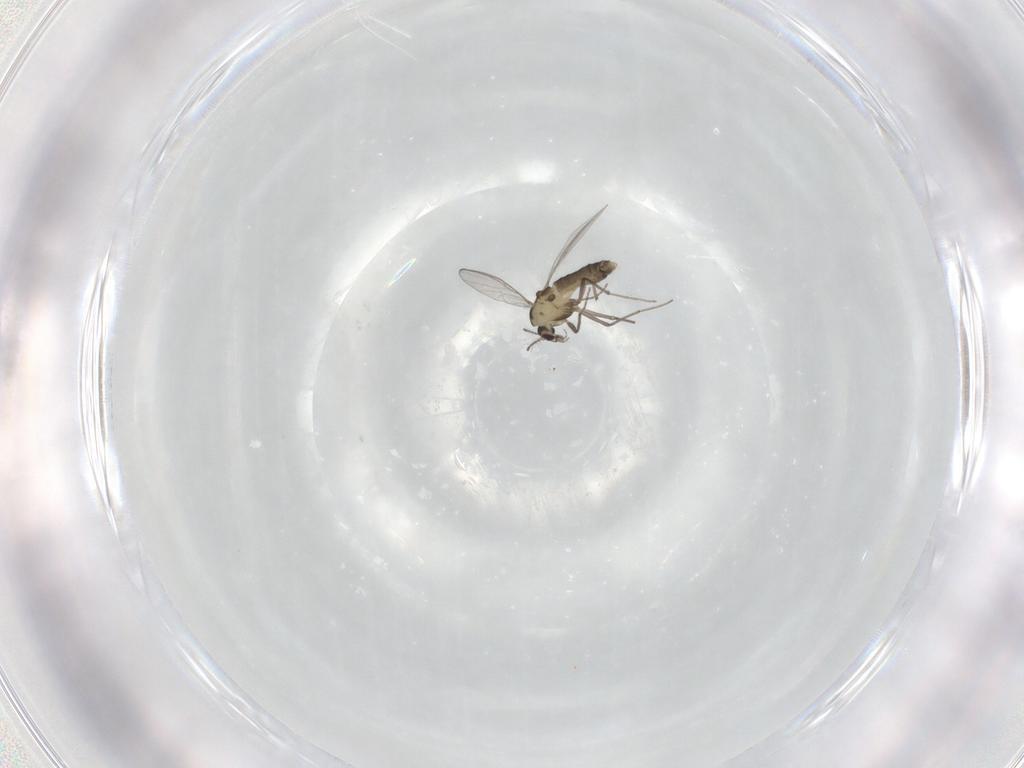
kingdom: Animalia
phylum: Arthropoda
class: Insecta
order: Diptera
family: Chironomidae
